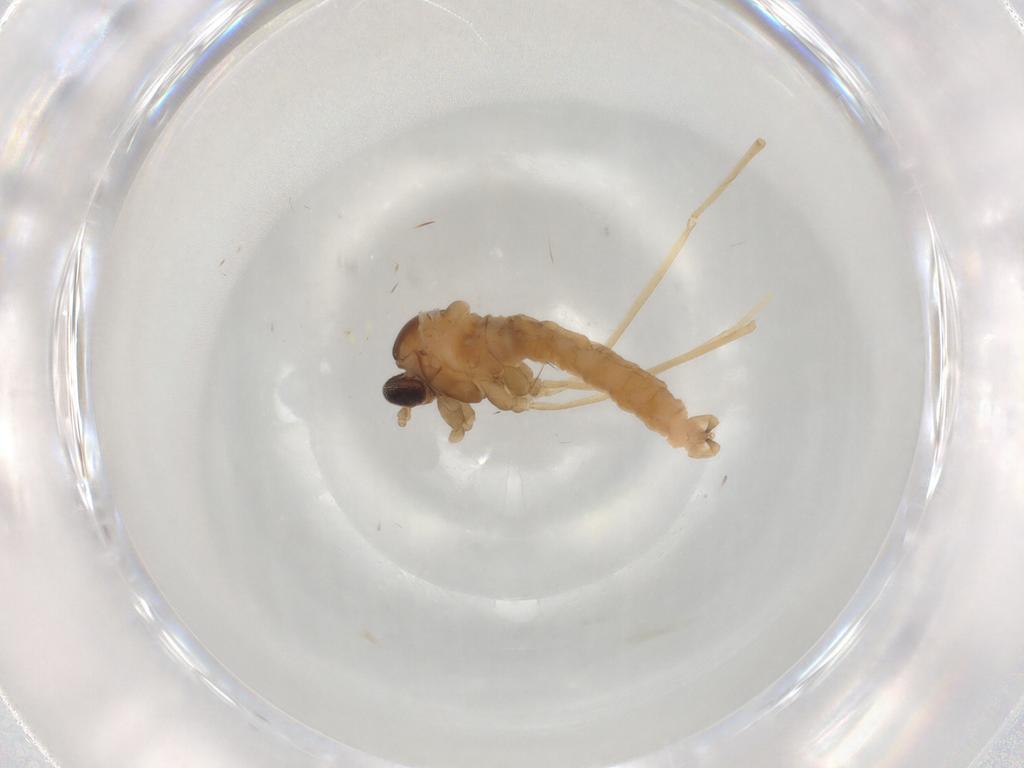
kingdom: Animalia
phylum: Arthropoda
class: Insecta
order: Diptera
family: Cecidomyiidae
